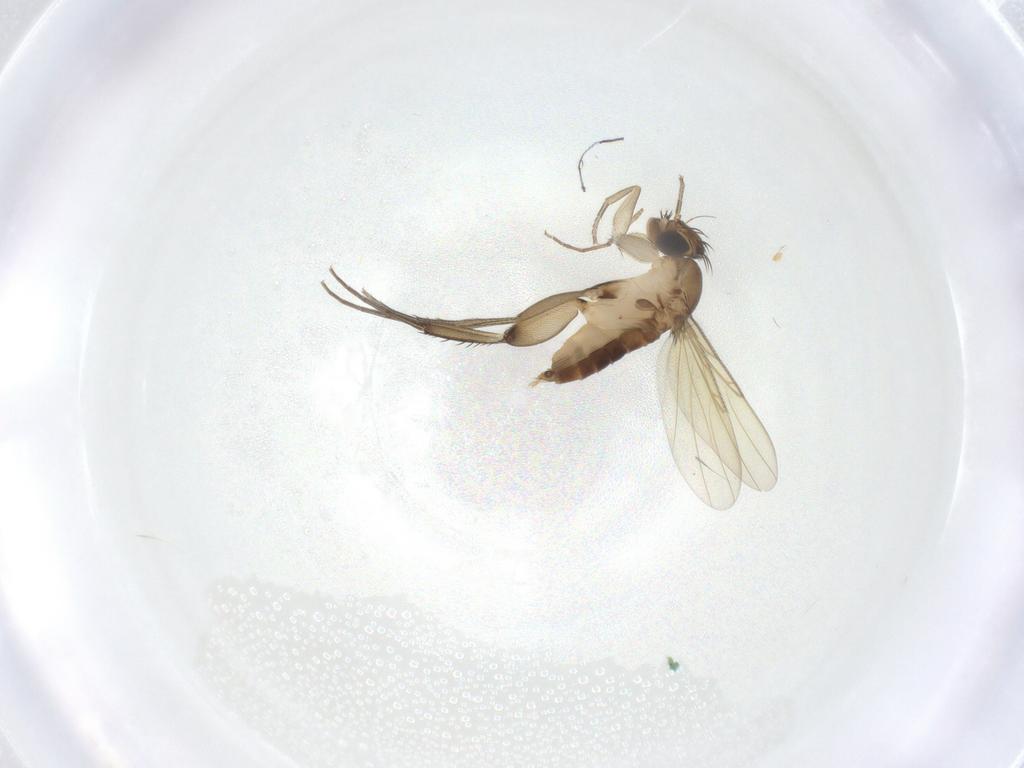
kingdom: Animalia
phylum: Arthropoda
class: Insecta
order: Diptera
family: Phoridae
